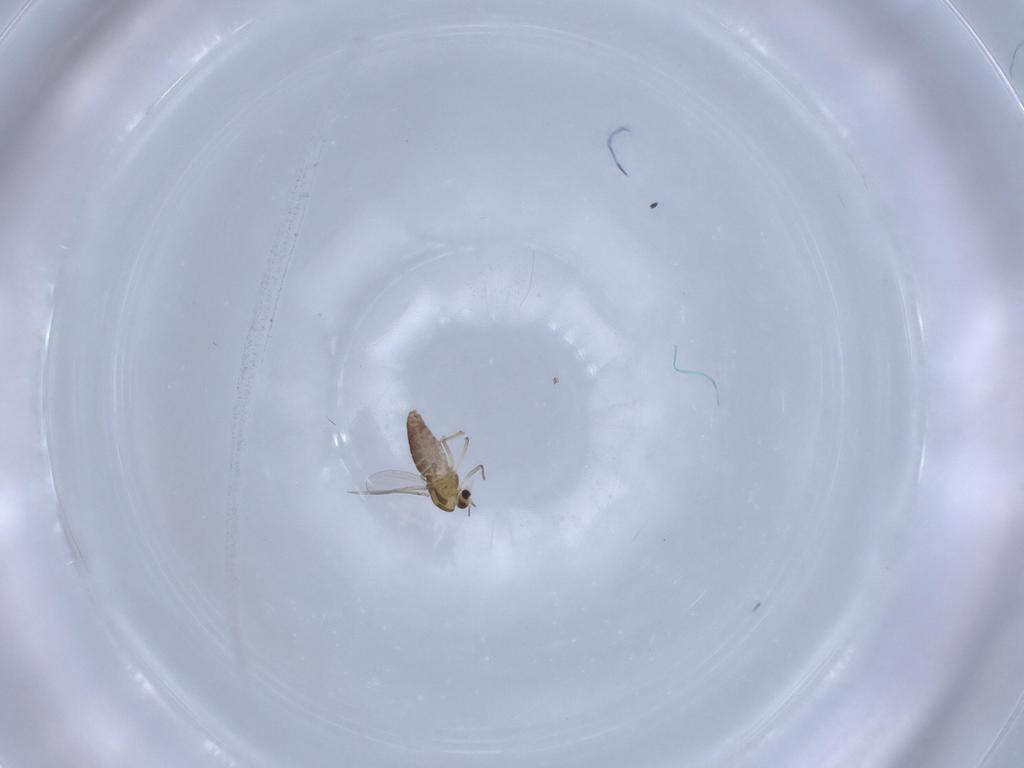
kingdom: Animalia
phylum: Arthropoda
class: Insecta
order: Diptera
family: Chironomidae
